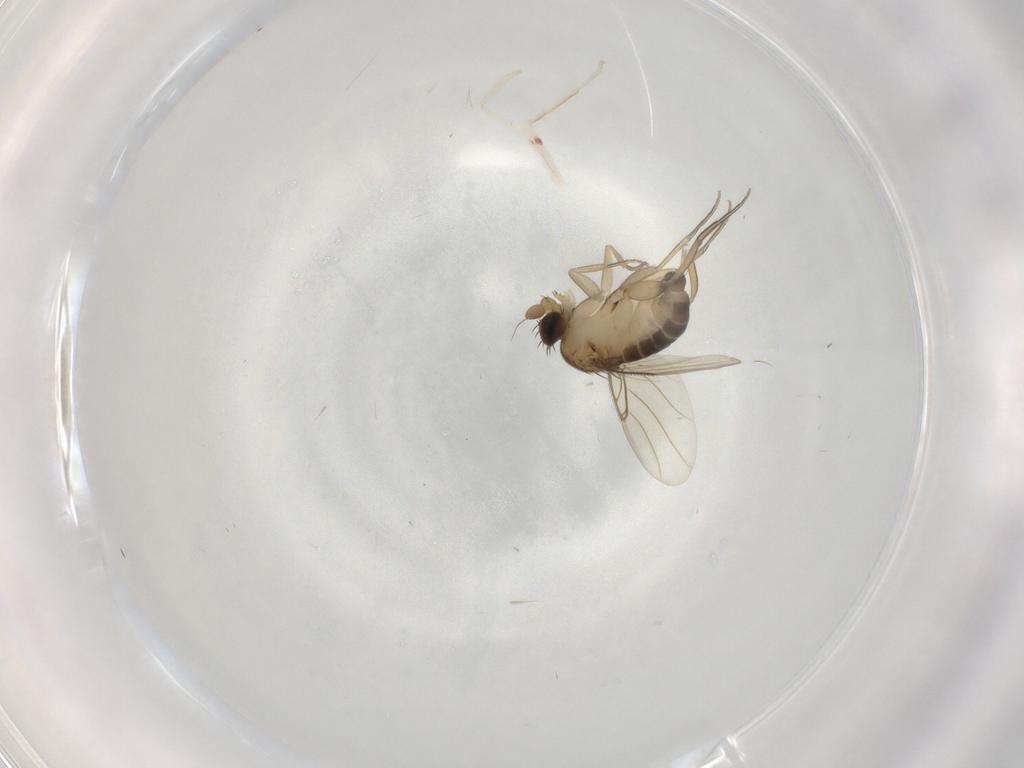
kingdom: Animalia
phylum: Arthropoda
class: Insecta
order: Diptera
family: Phoridae
